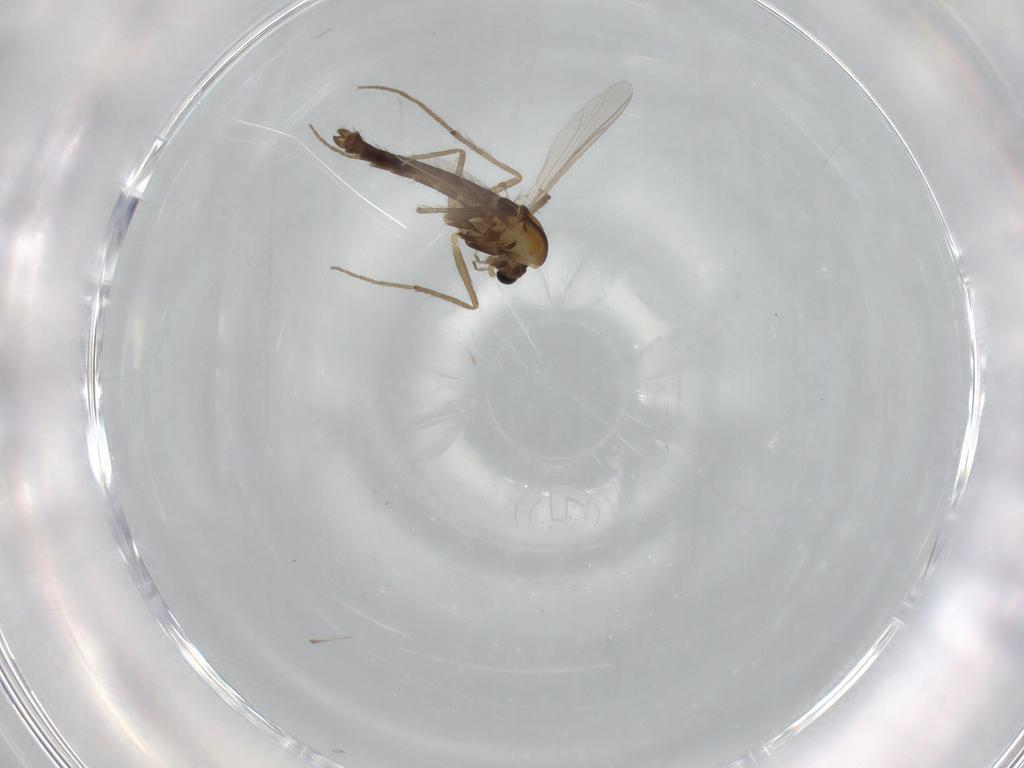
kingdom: Animalia
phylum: Arthropoda
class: Insecta
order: Diptera
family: Chironomidae
